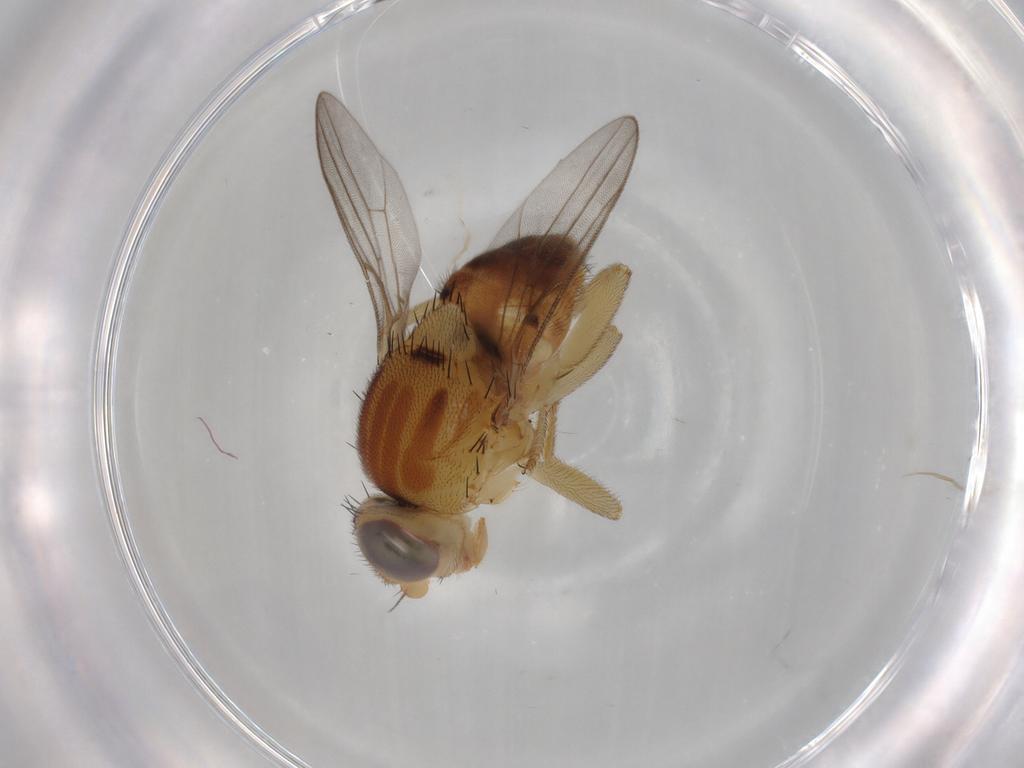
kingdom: Animalia
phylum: Arthropoda
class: Insecta
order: Diptera
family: Chloropidae
